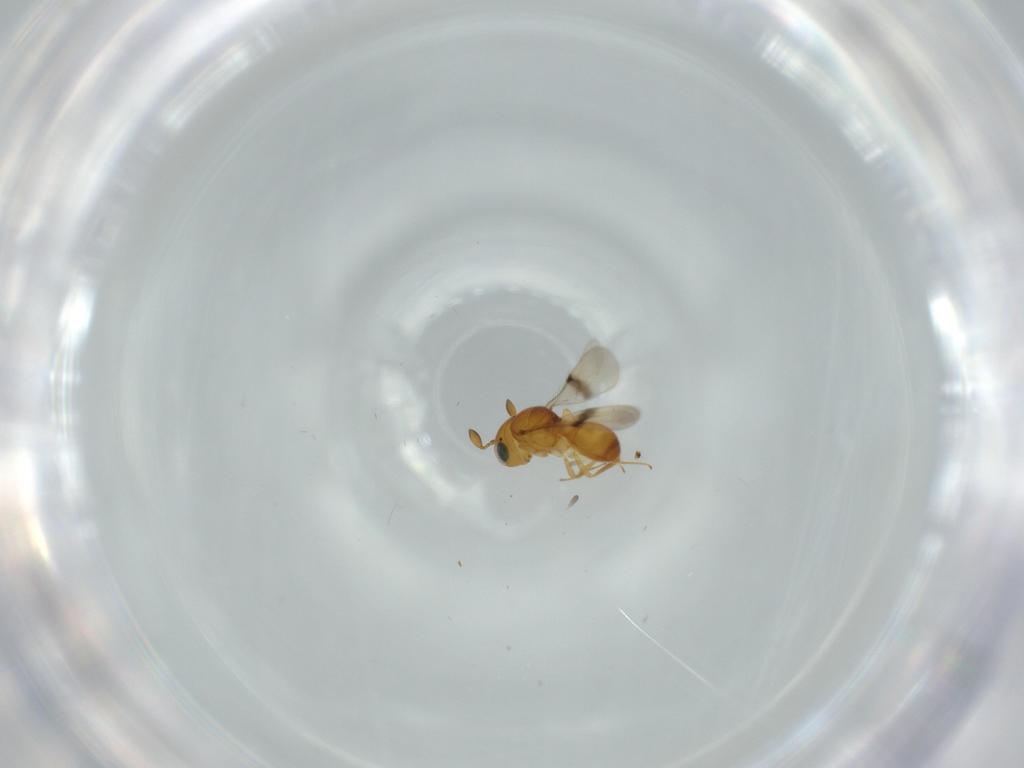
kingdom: Animalia
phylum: Arthropoda
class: Insecta
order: Hymenoptera
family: Scelionidae
